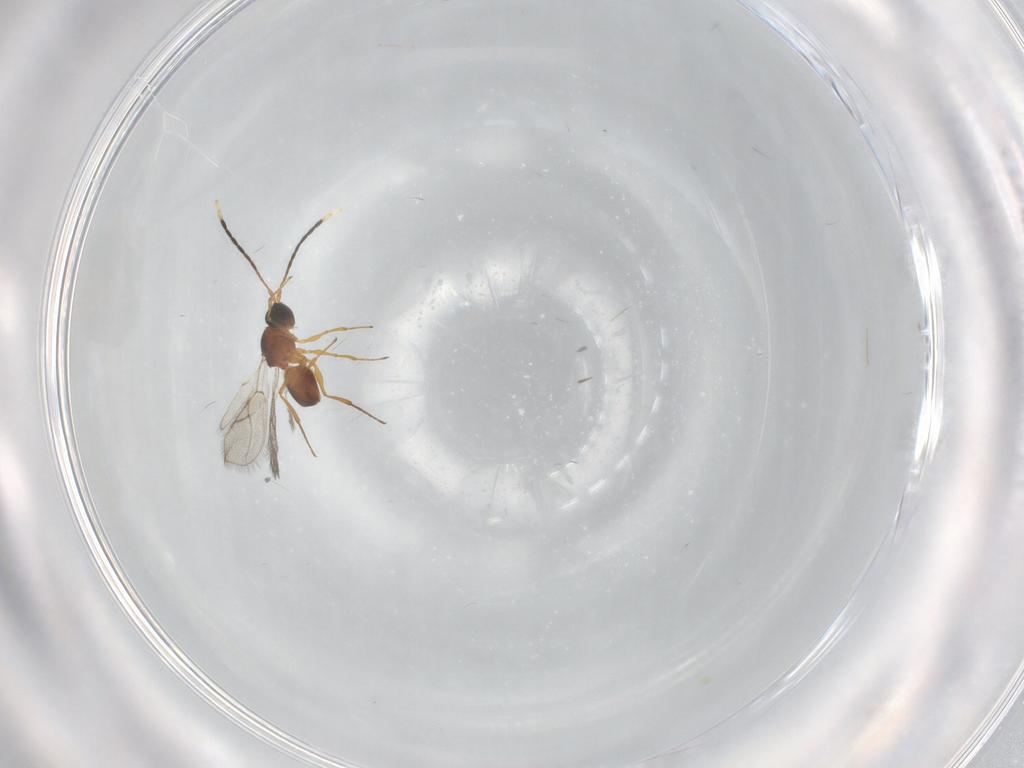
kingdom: Animalia
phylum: Arthropoda
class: Insecta
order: Hymenoptera
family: Figitidae
